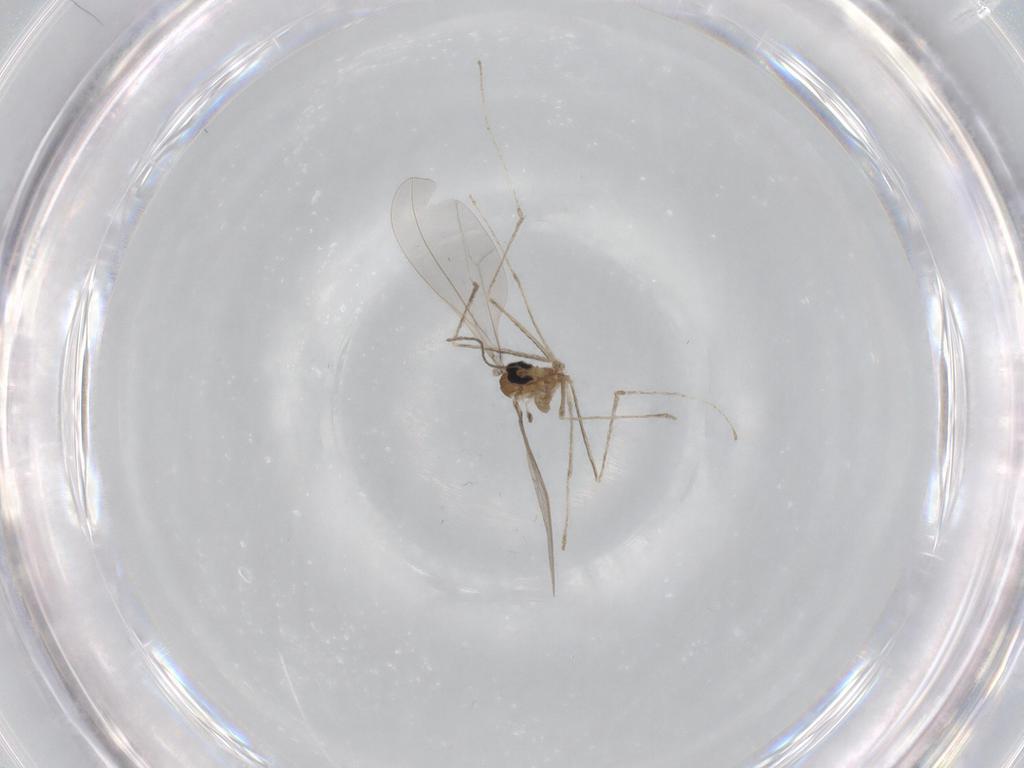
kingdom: Animalia
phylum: Arthropoda
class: Insecta
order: Diptera
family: Cecidomyiidae
